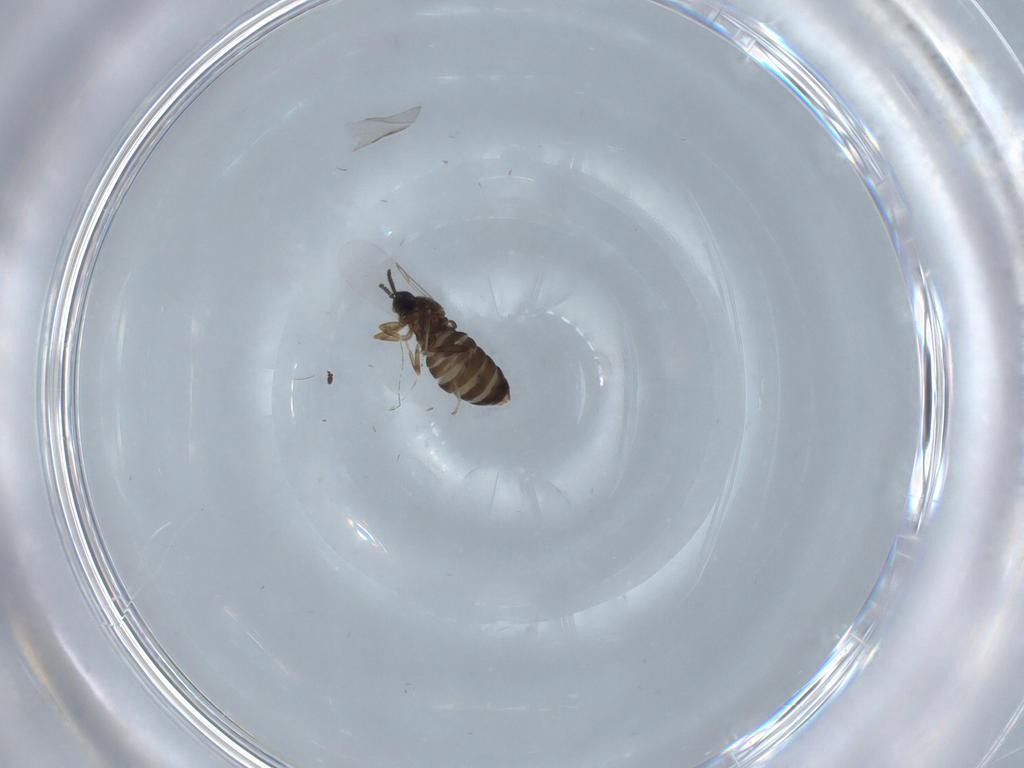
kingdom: Animalia
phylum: Arthropoda
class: Insecta
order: Diptera
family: Scatopsidae
